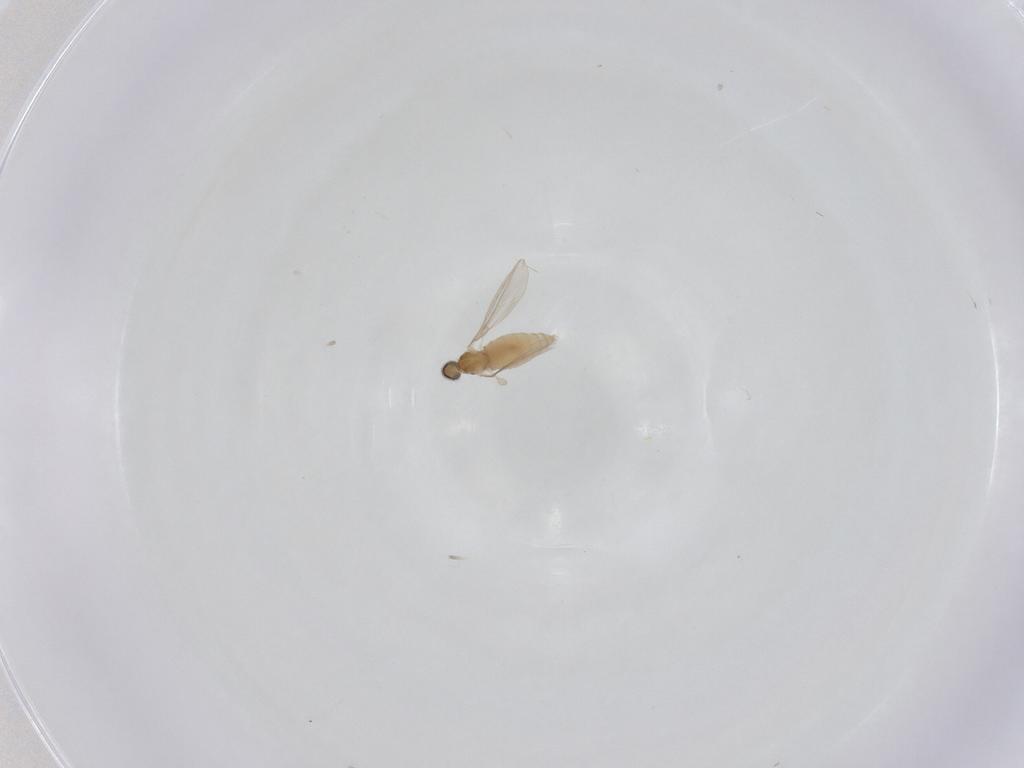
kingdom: Animalia
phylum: Arthropoda
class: Insecta
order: Diptera
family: Cecidomyiidae
